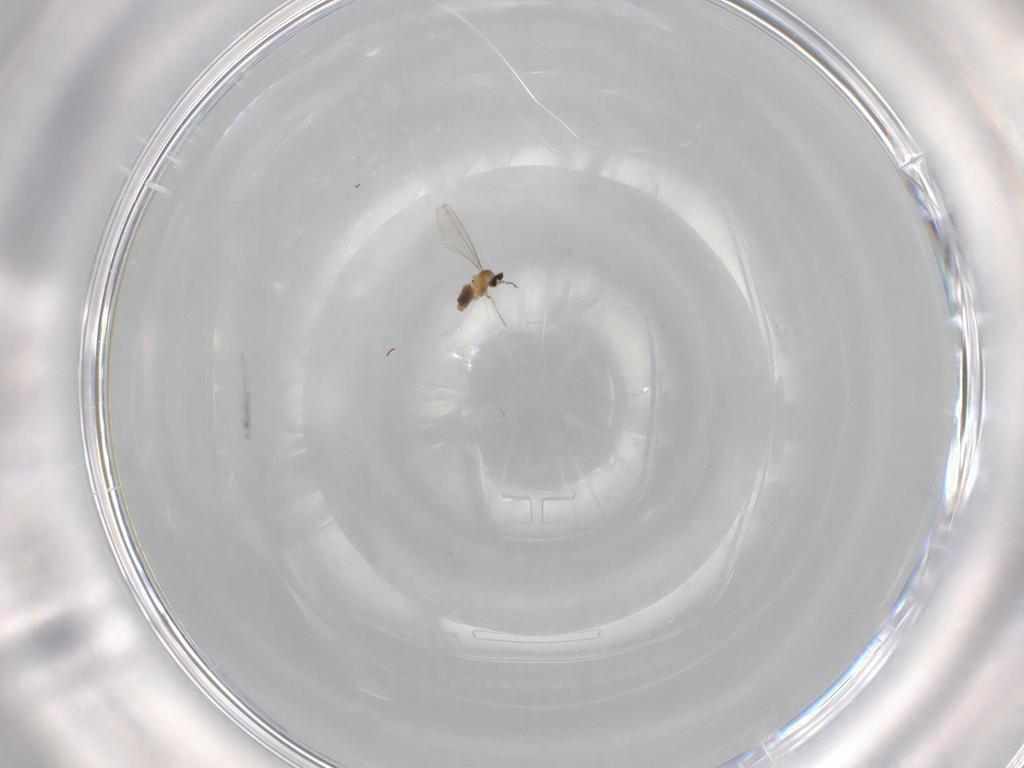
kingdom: Animalia
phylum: Arthropoda
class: Insecta
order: Diptera
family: Cecidomyiidae
